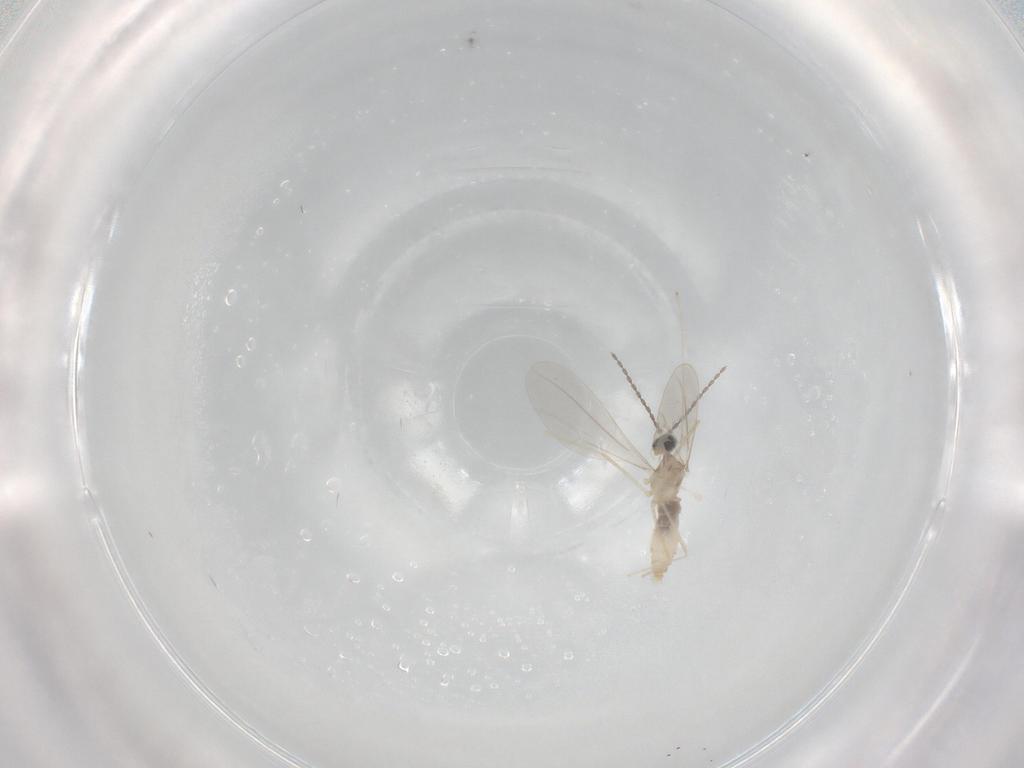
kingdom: Animalia
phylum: Arthropoda
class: Insecta
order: Diptera
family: Cecidomyiidae
